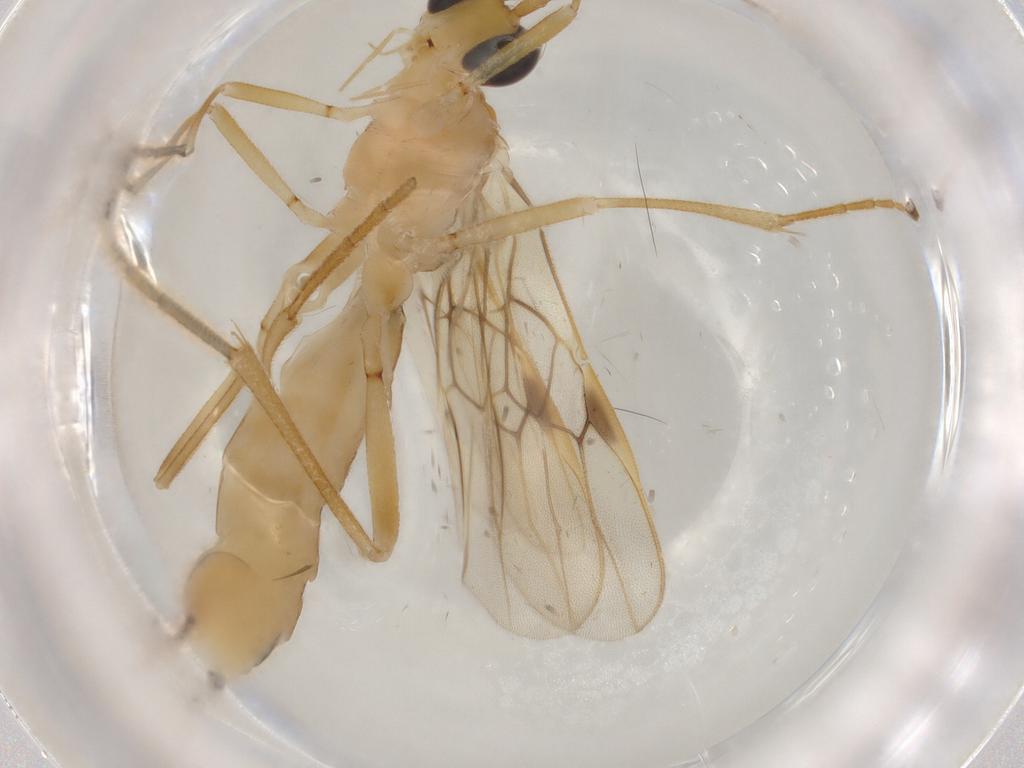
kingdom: Animalia
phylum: Arthropoda
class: Insecta
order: Hymenoptera
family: Braconidae
